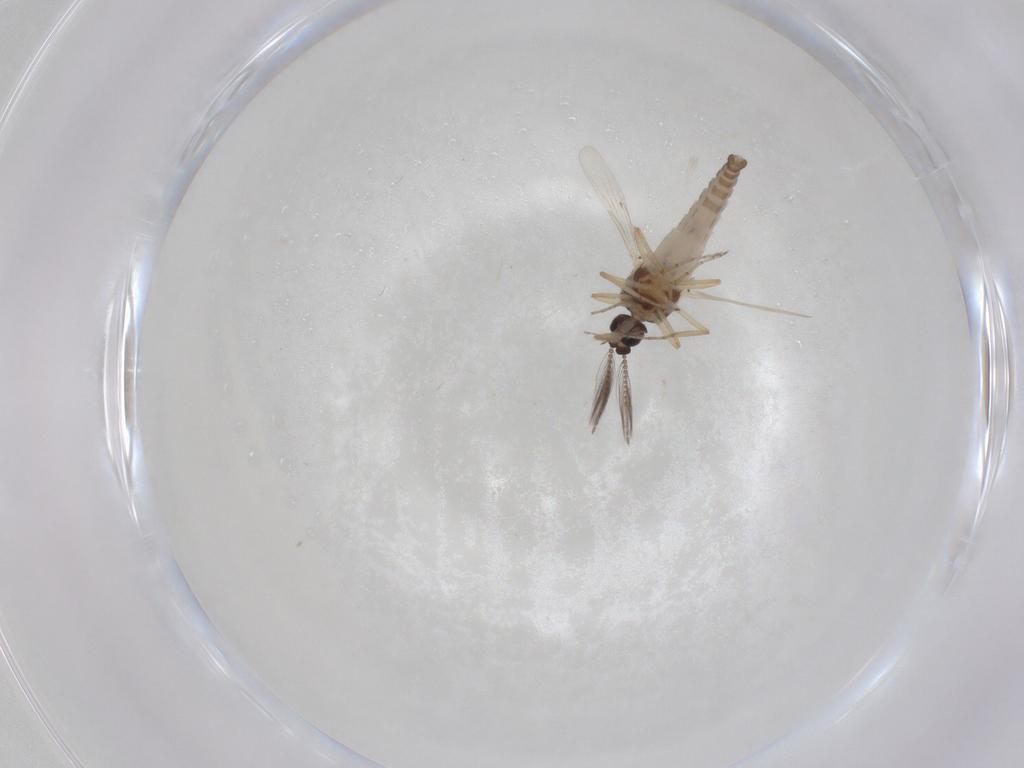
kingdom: Animalia
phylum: Arthropoda
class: Insecta
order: Diptera
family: Ceratopogonidae
